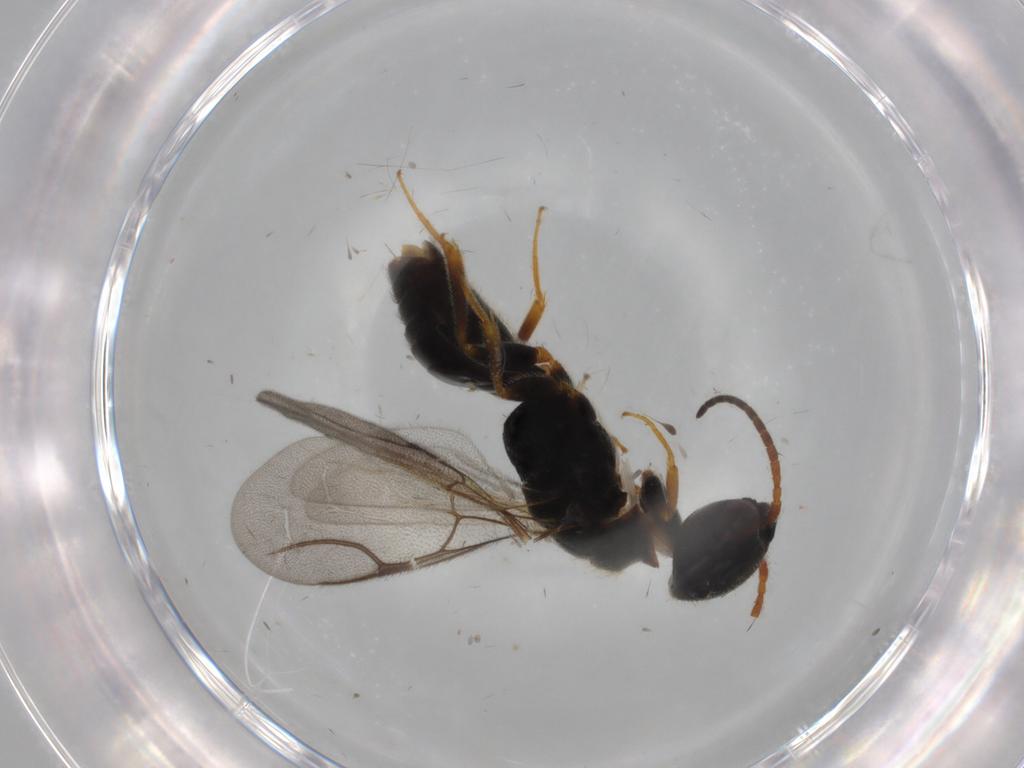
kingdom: Animalia
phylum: Arthropoda
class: Insecta
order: Hymenoptera
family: Bethylidae
